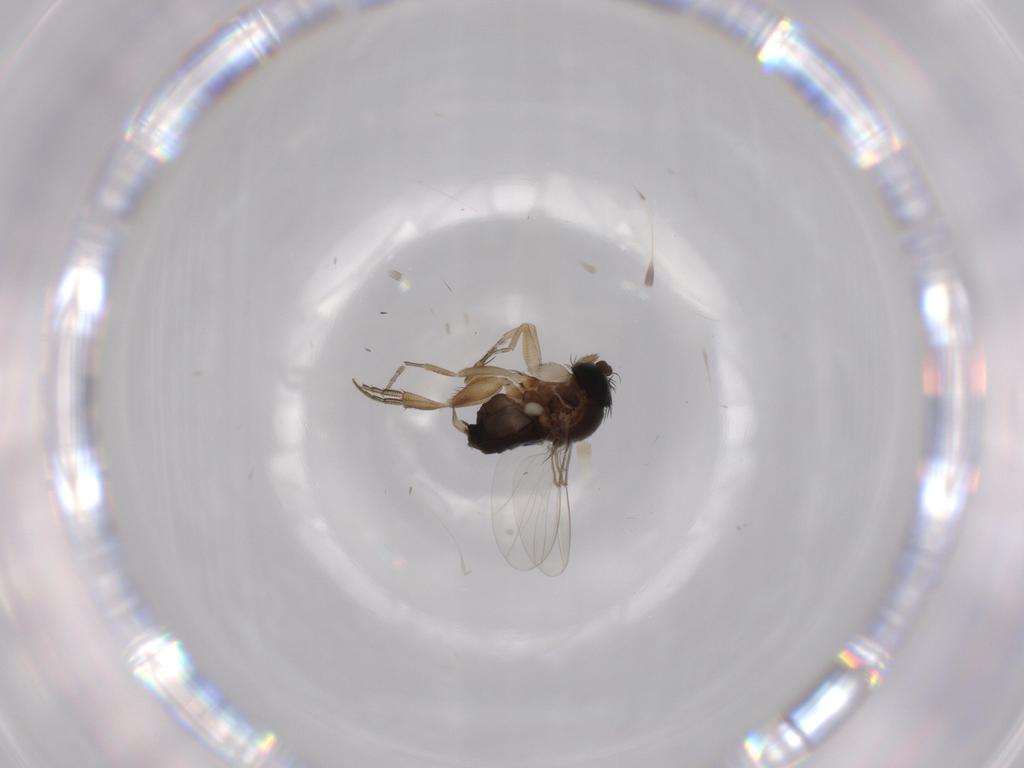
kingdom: Animalia
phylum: Arthropoda
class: Insecta
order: Diptera
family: Phoridae
